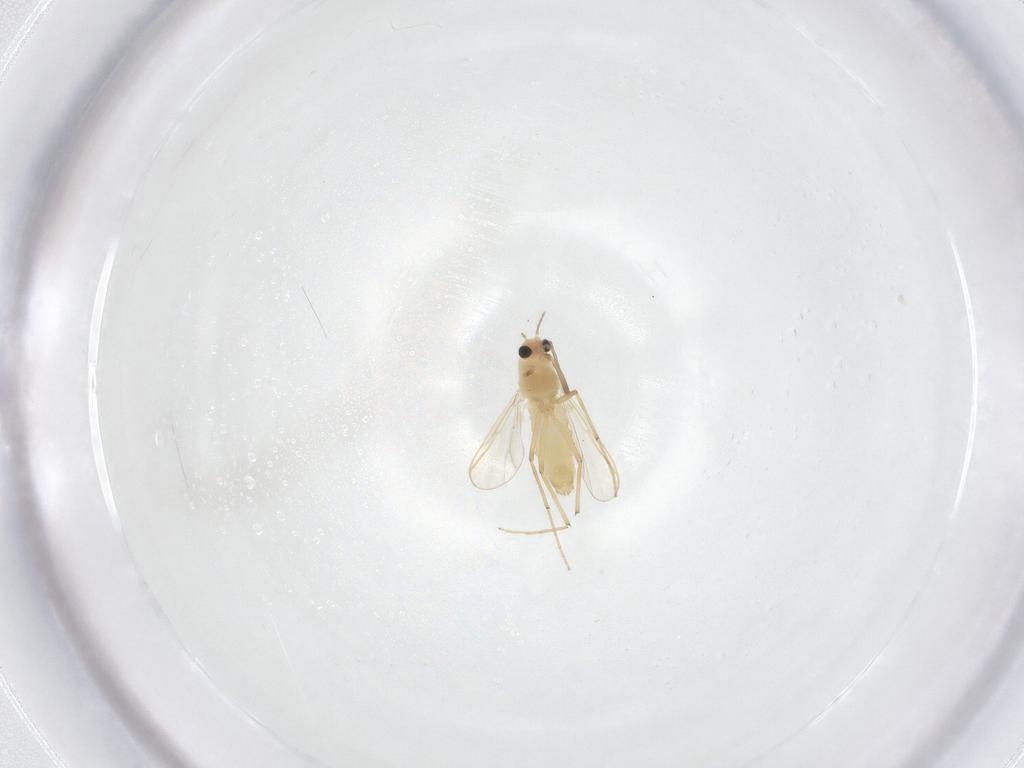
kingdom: Animalia
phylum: Arthropoda
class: Insecta
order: Diptera
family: Chironomidae
